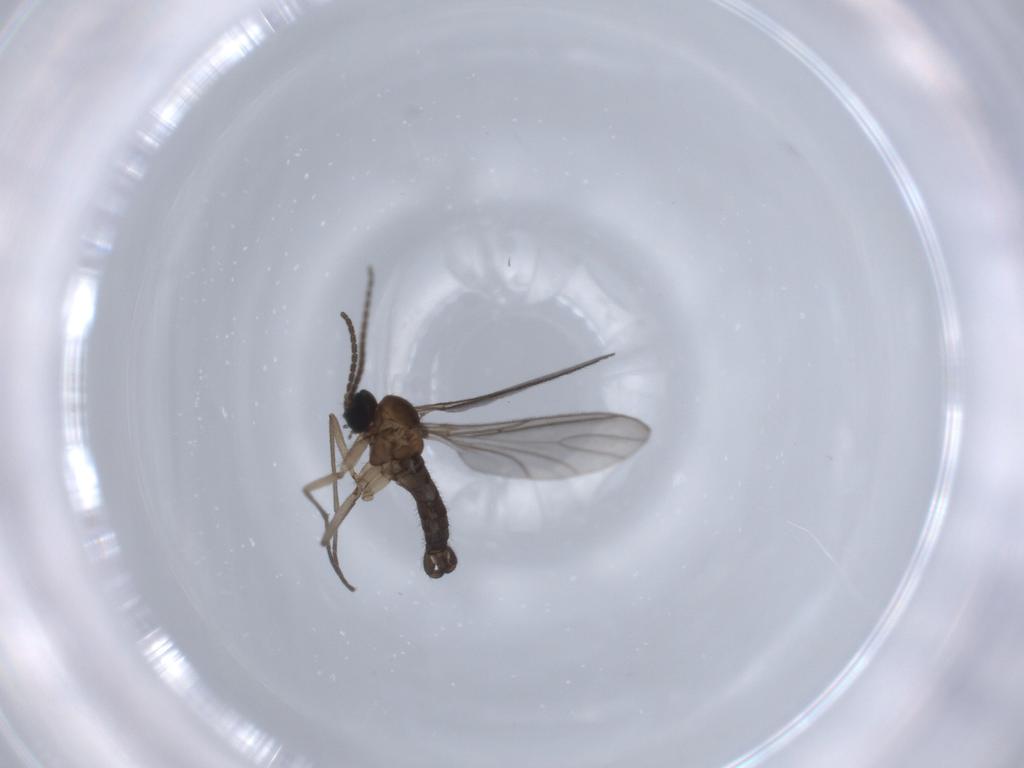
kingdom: Animalia
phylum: Arthropoda
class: Insecta
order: Diptera
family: Sciaridae
